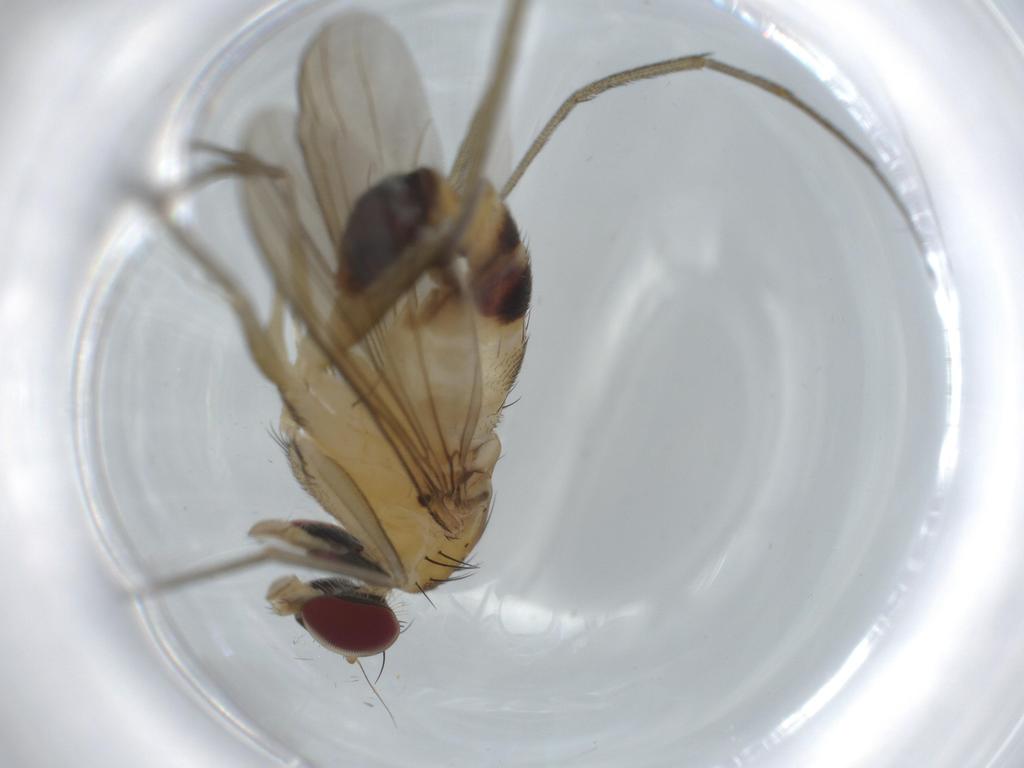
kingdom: Animalia
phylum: Arthropoda
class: Insecta
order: Diptera
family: Dolichopodidae
